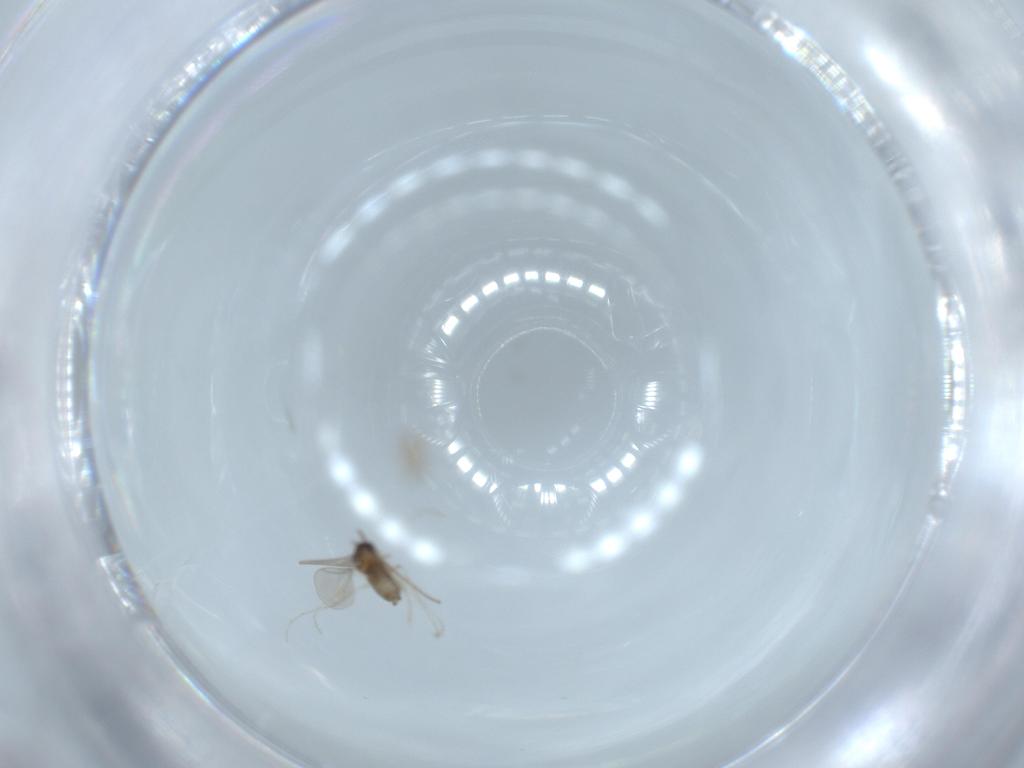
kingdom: Animalia
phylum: Arthropoda
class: Insecta
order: Diptera
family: Cecidomyiidae
